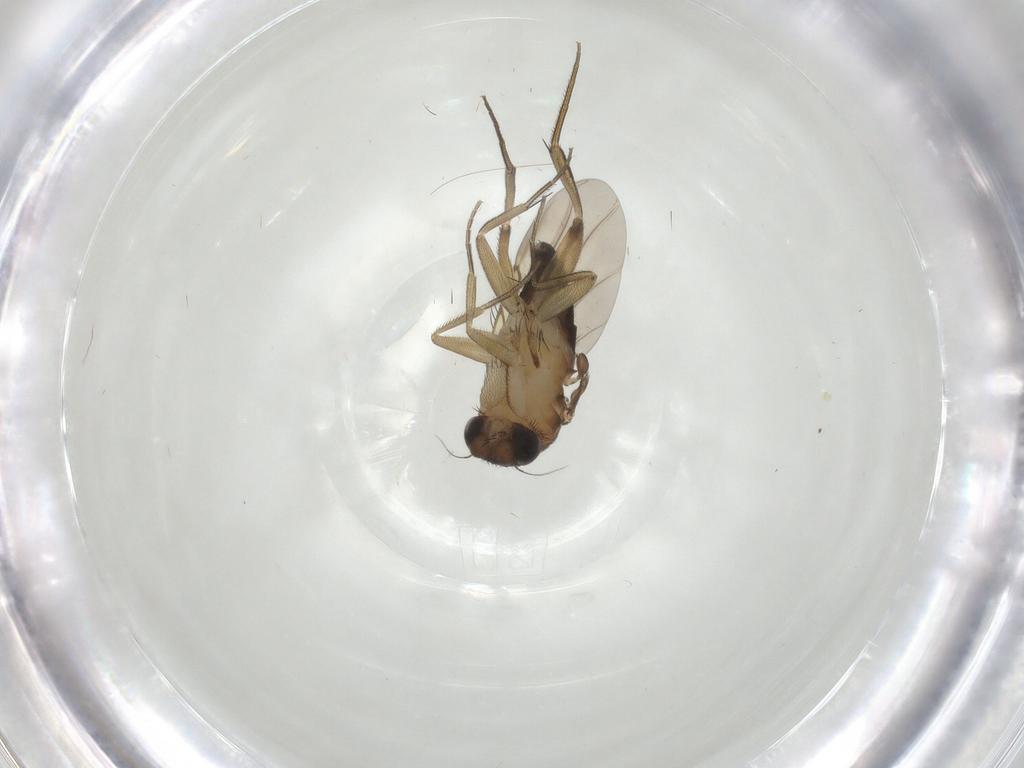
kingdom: Animalia
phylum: Arthropoda
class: Insecta
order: Diptera
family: Phoridae
